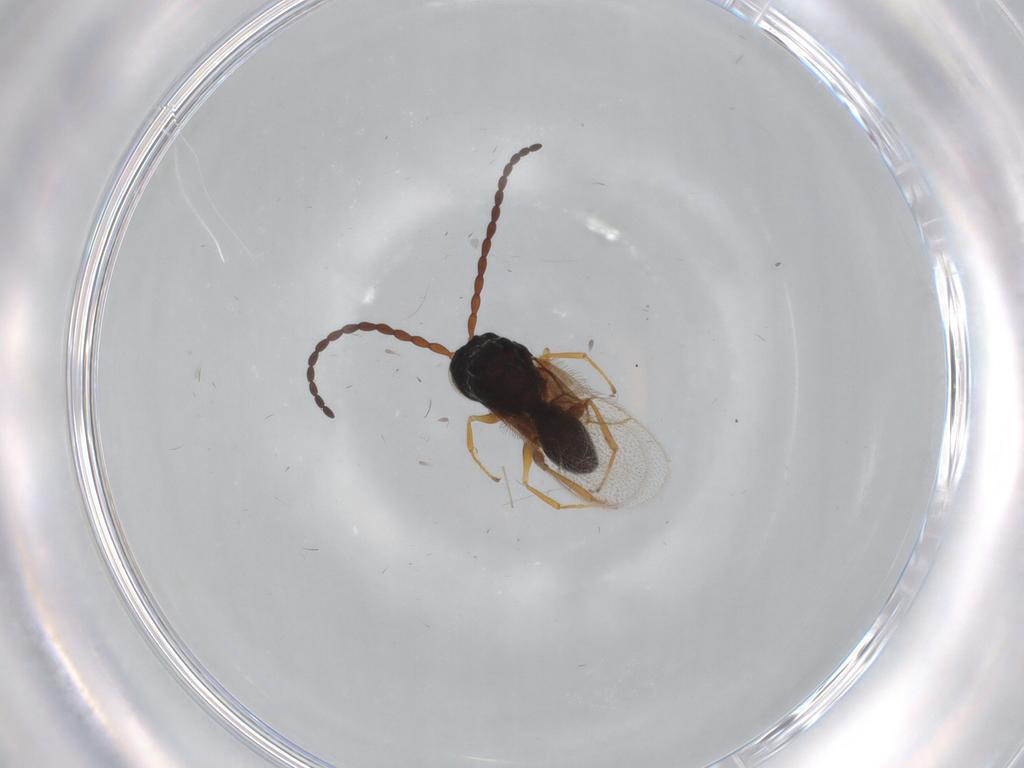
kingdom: Animalia
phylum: Arthropoda
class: Insecta
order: Hymenoptera
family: Figitidae
